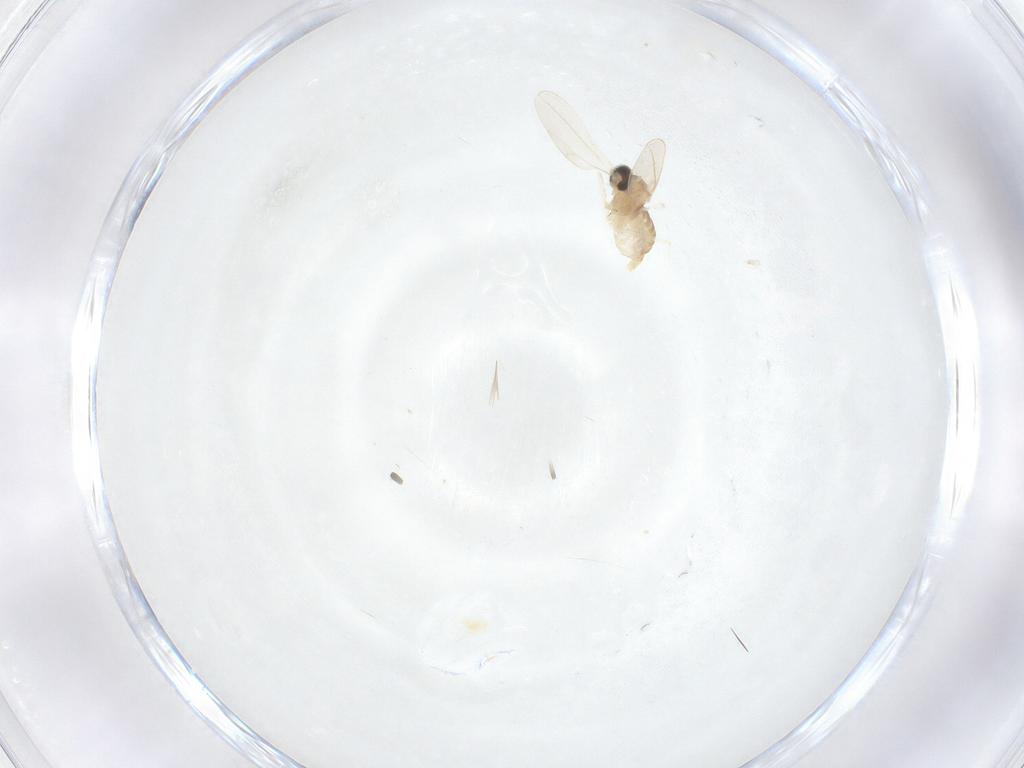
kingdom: Animalia
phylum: Arthropoda
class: Insecta
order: Diptera
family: Cecidomyiidae
